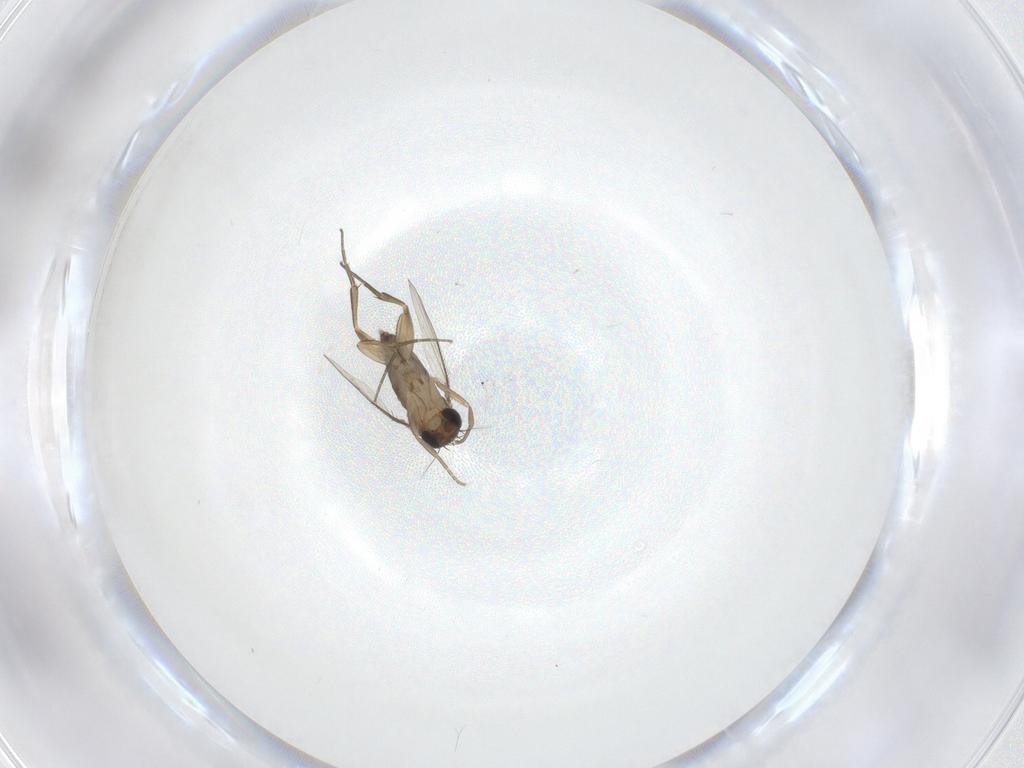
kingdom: Animalia
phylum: Arthropoda
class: Insecta
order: Diptera
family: Phoridae
